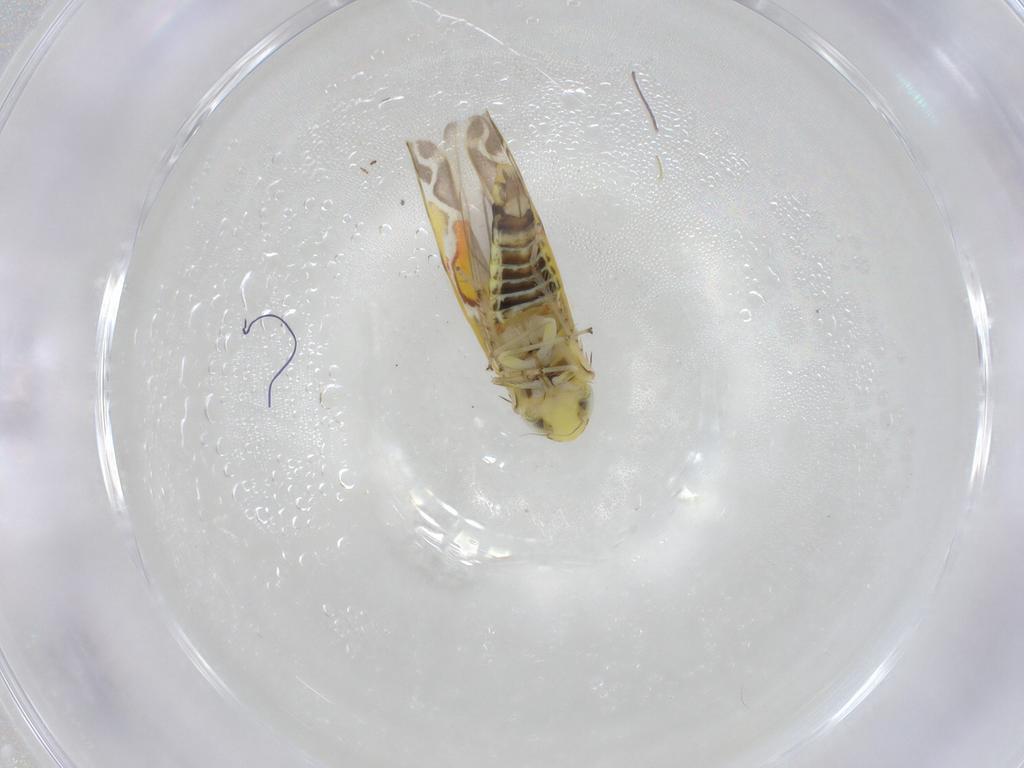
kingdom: Animalia
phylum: Arthropoda
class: Insecta
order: Hemiptera
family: Cicadellidae
